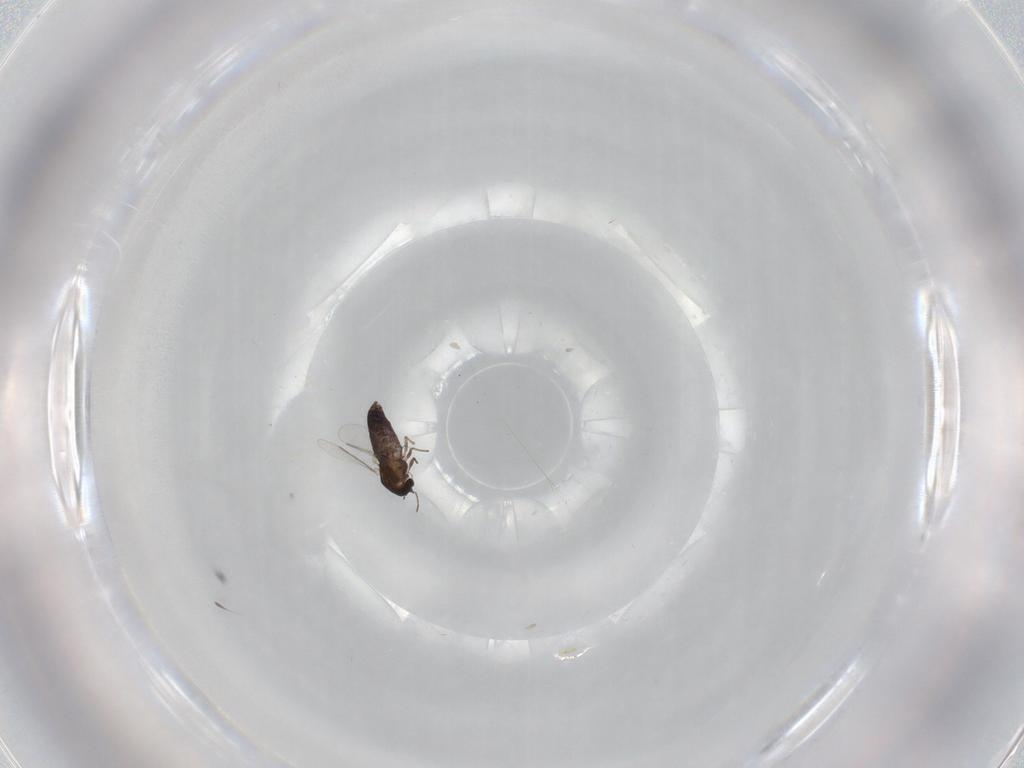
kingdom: Animalia
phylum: Arthropoda
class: Insecta
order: Diptera
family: Chironomidae
